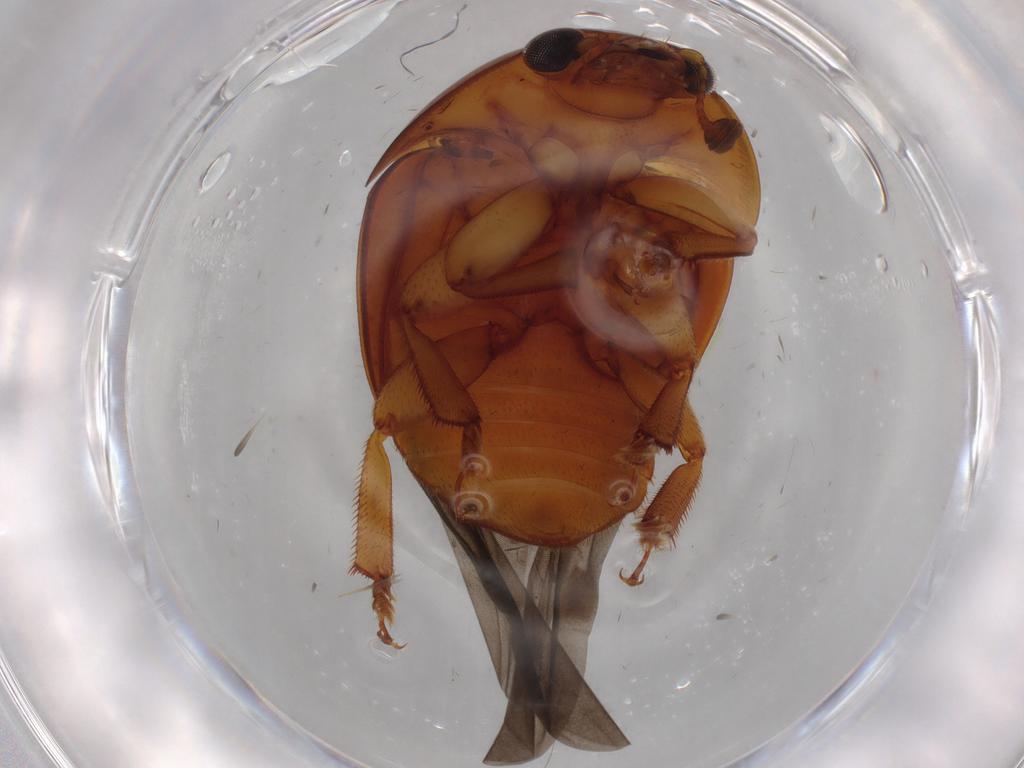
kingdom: Animalia
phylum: Arthropoda
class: Insecta
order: Coleoptera
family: Nitidulidae
